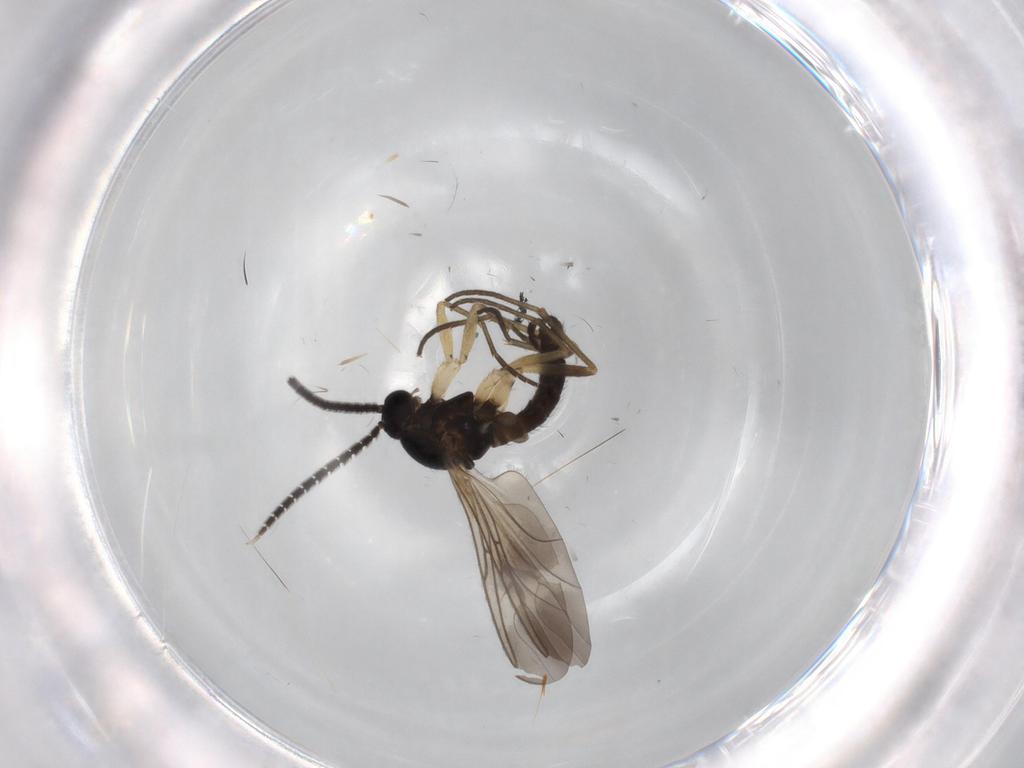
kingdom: Animalia
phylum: Arthropoda
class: Insecta
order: Diptera
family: Sciaridae
